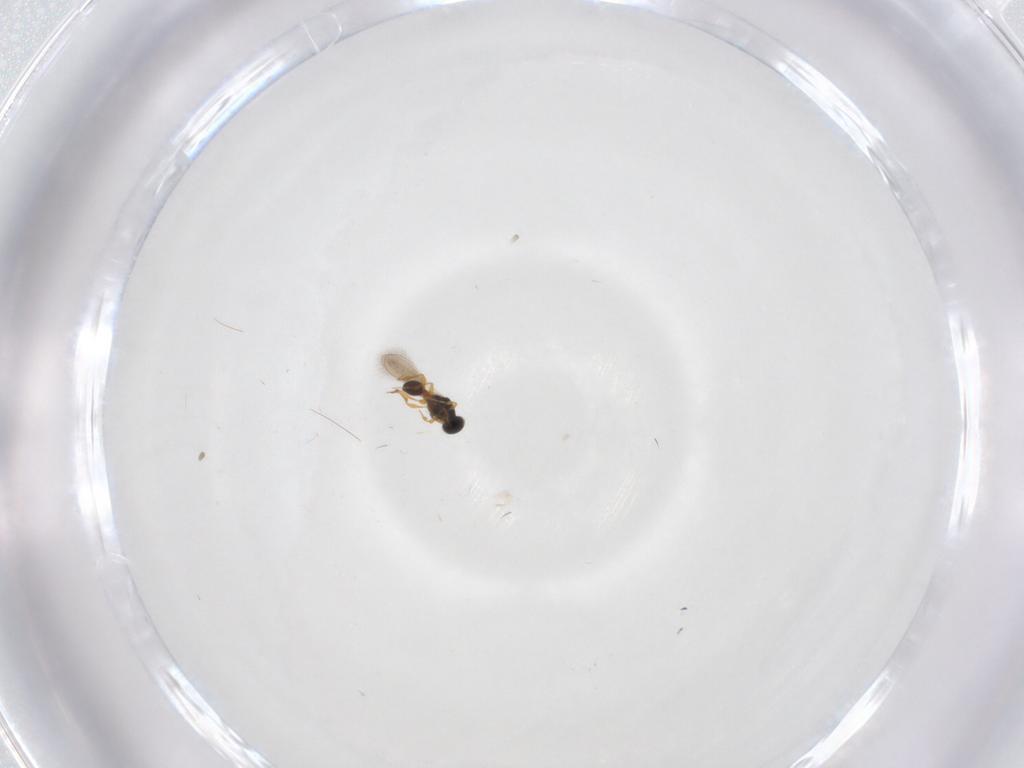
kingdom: Animalia
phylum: Arthropoda
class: Insecta
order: Hymenoptera
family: Platygastridae
